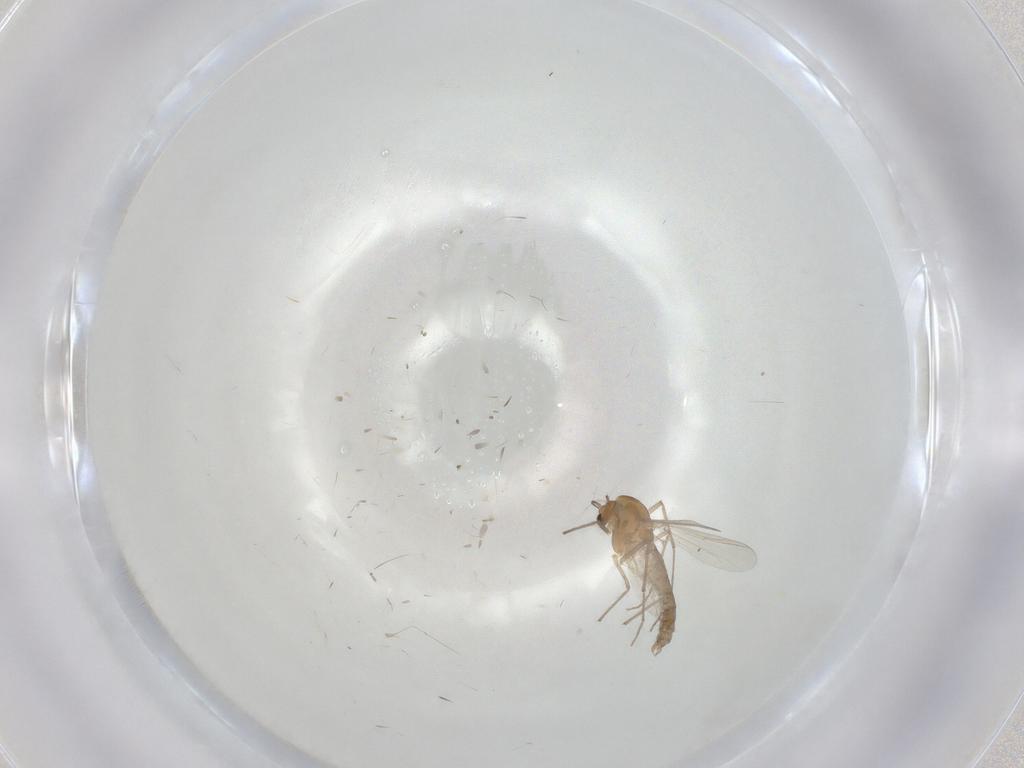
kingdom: Animalia
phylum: Arthropoda
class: Insecta
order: Diptera
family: Chironomidae
